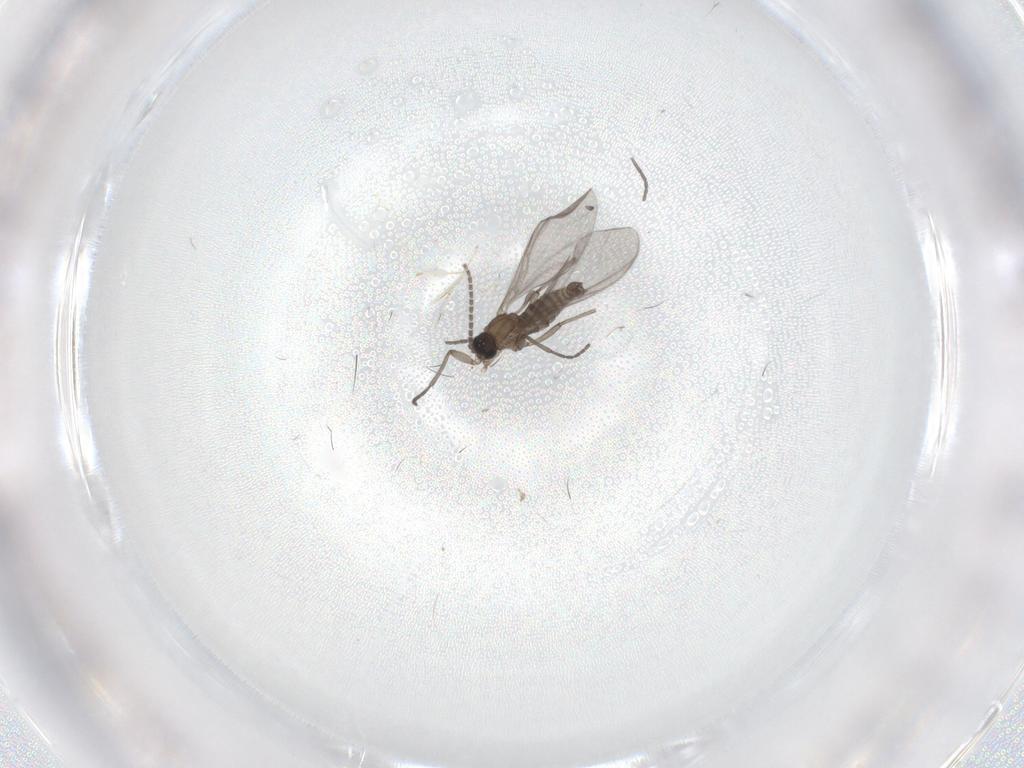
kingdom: Animalia
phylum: Arthropoda
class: Insecta
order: Diptera
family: Sciaridae
